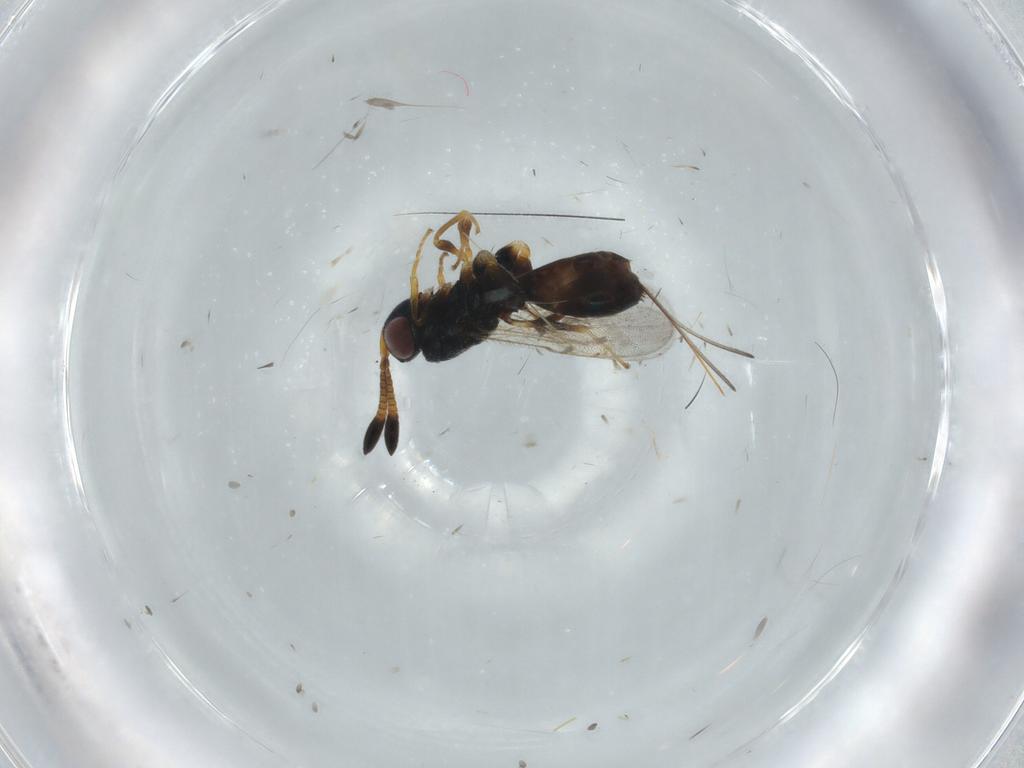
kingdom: Animalia
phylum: Arthropoda
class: Insecta
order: Hymenoptera
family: Torymidae
